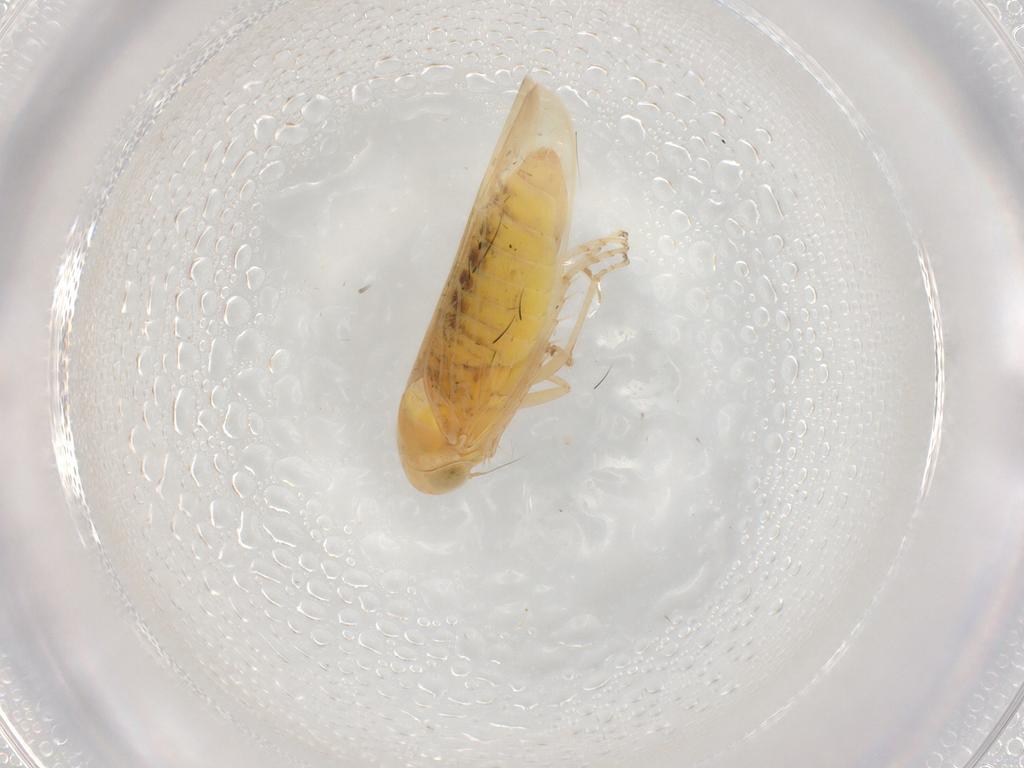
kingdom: Animalia
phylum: Arthropoda
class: Insecta
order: Hemiptera
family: Cicadellidae
